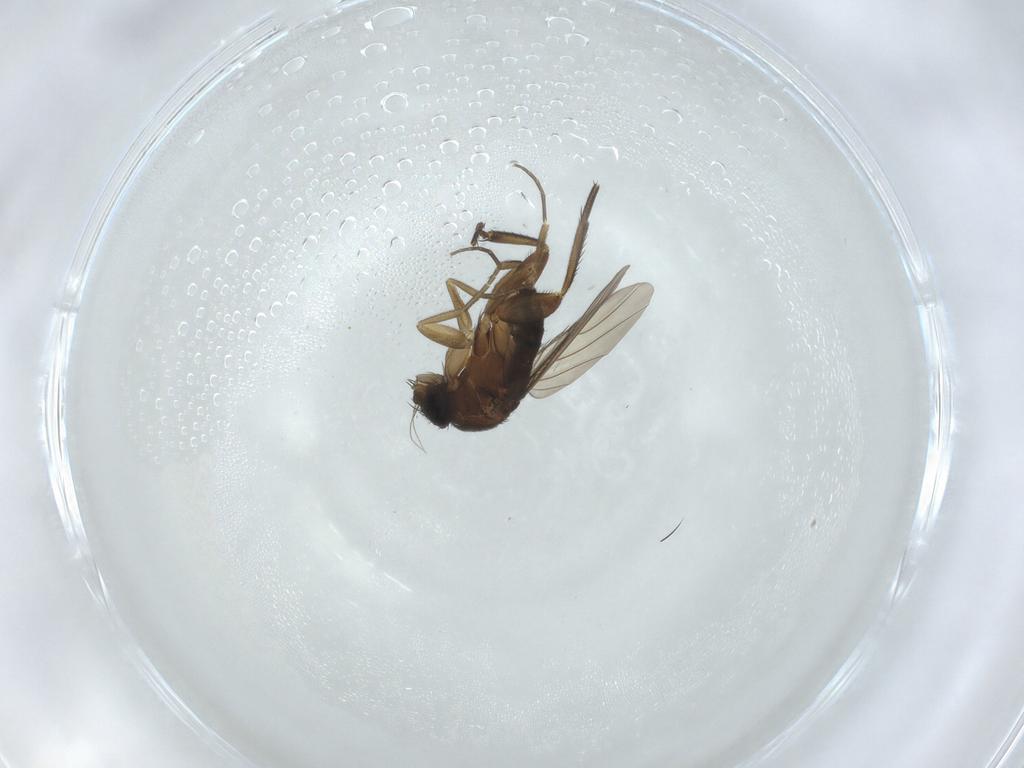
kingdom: Animalia
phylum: Arthropoda
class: Insecta
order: Diptera
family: Phoridae
